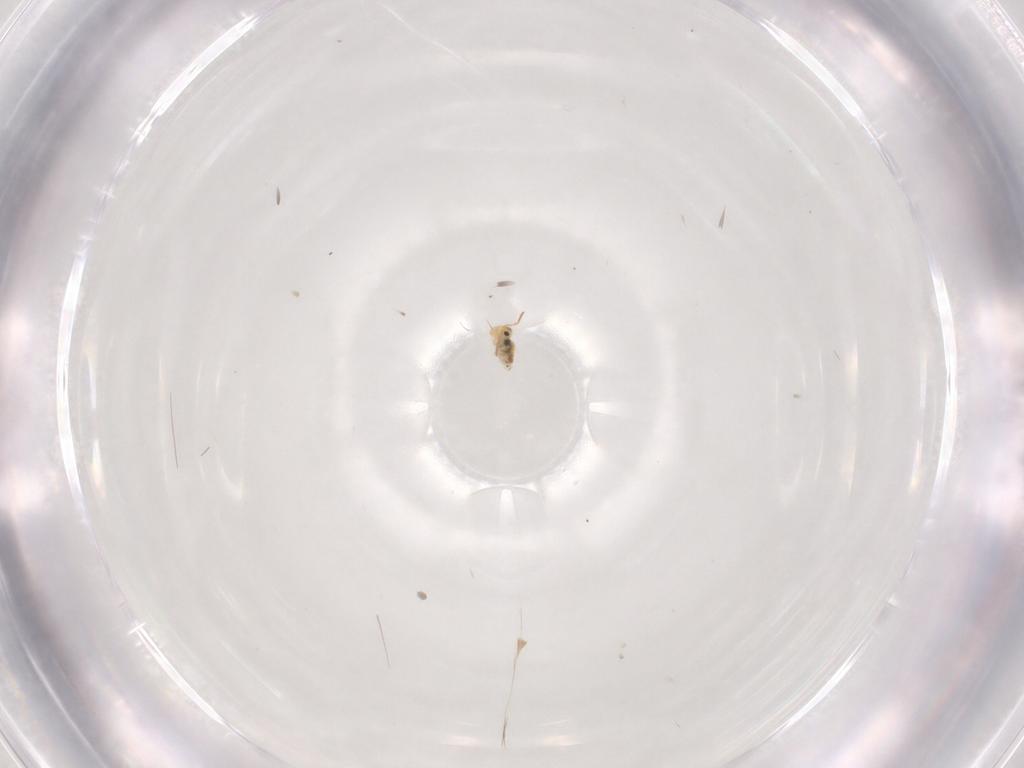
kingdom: Animalia
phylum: Arthropoda
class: Collembola
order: Symphypleona
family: Bourletiellidae
